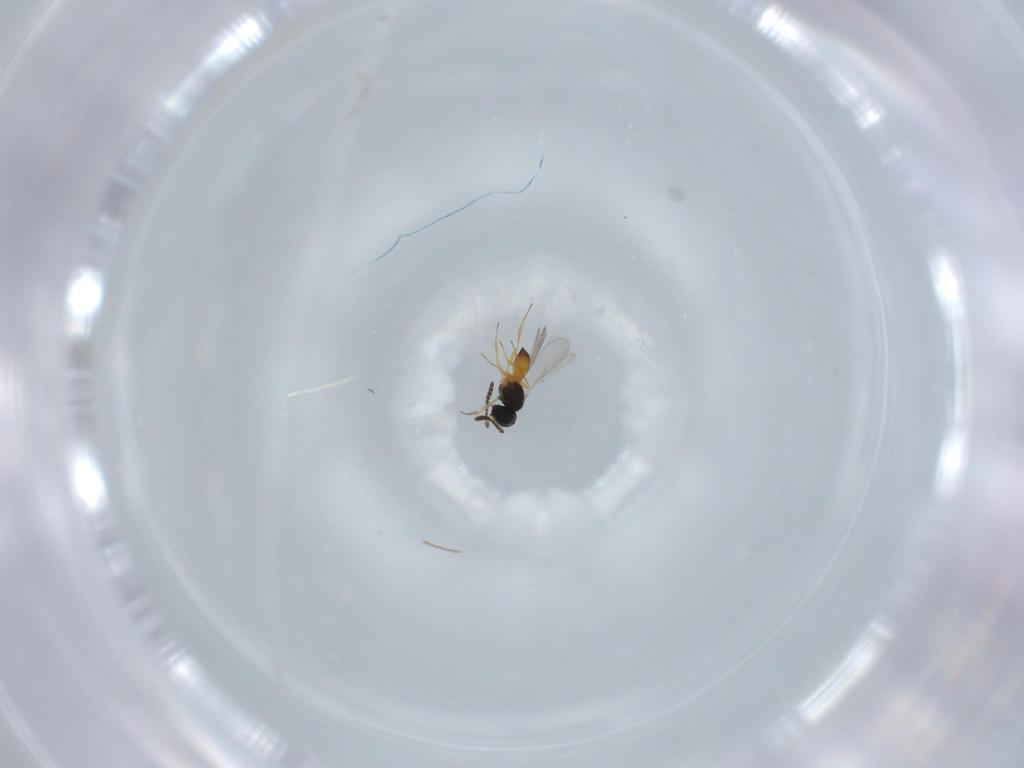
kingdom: Animalia
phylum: Arthropoda
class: Insecta
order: Hymenoptera
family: Scelionidae
